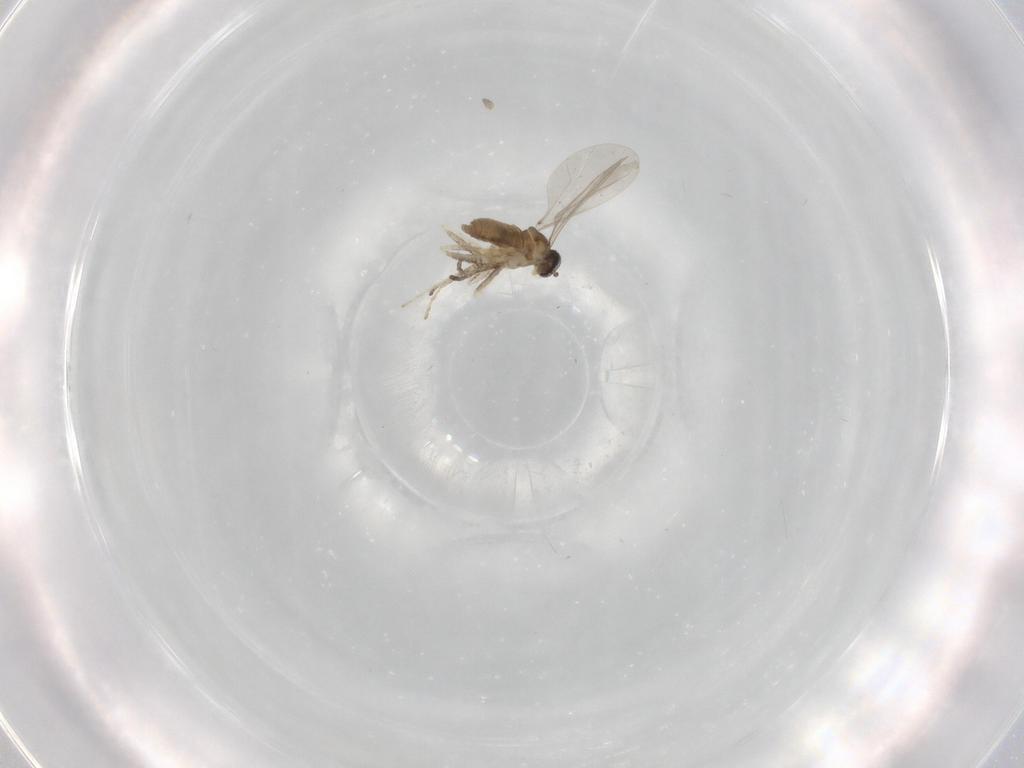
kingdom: Animalia
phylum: Arthropoda
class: Insecta
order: Diptera
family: Cecidomyiidae
